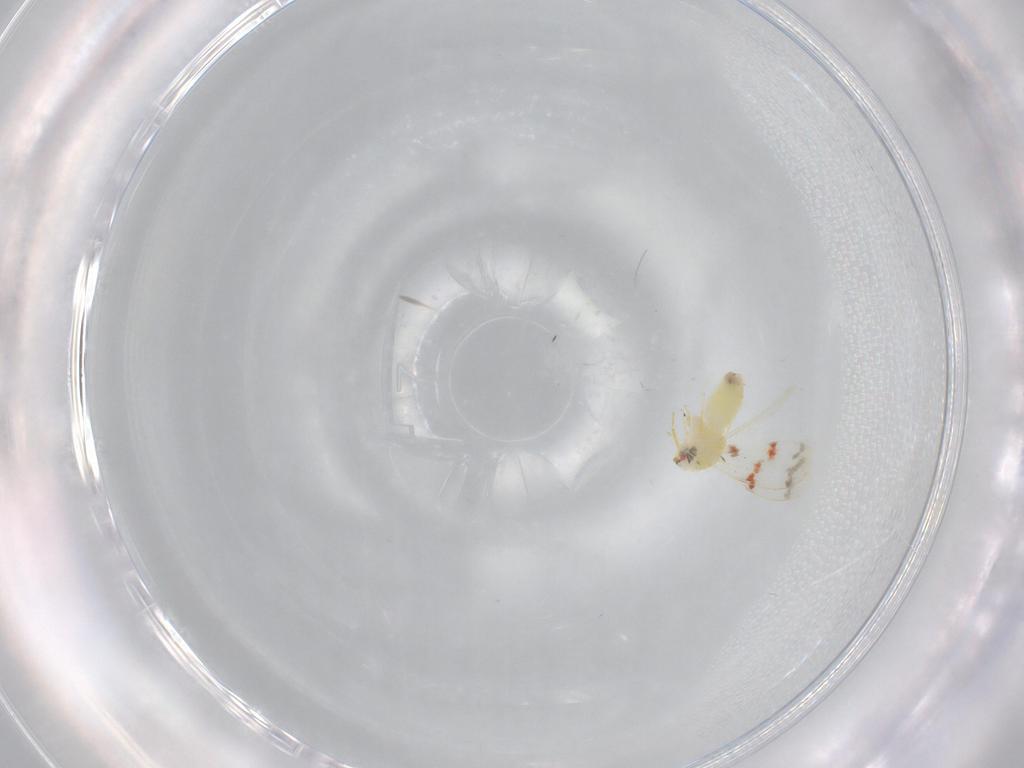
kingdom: Animalia
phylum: Arthropoda
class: Insecta
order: Hemiptera
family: Aleyrodidae
